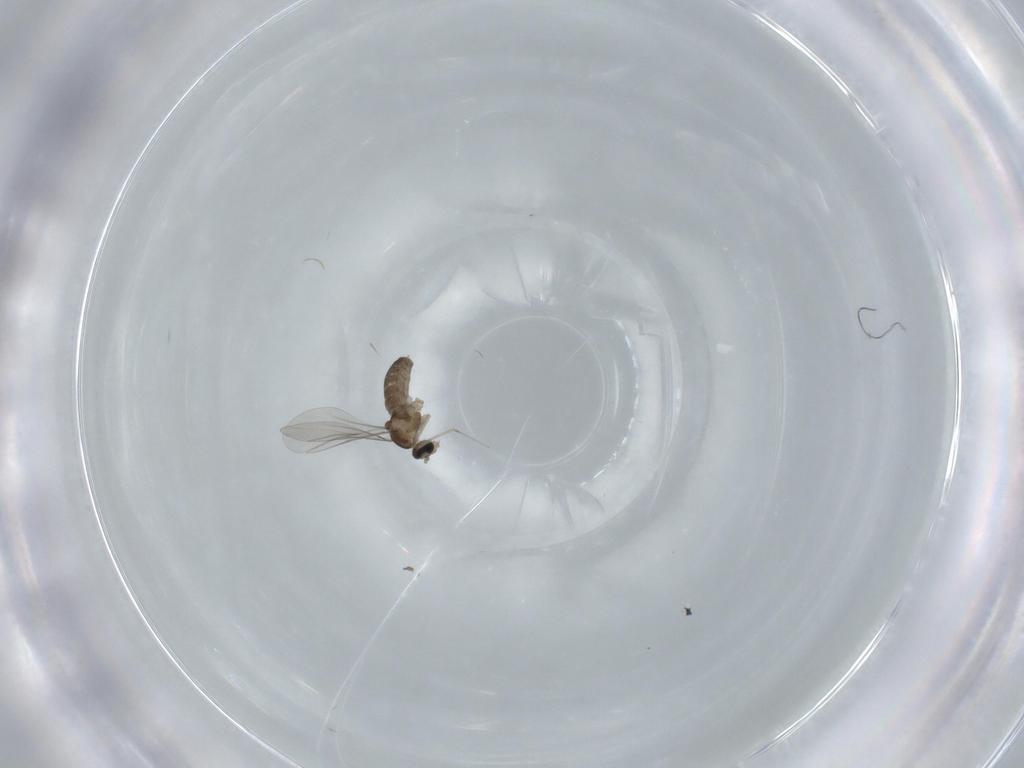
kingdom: Animalia
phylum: Arthropoda
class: Insecta
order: Diptera
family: Cecidomyiidae
